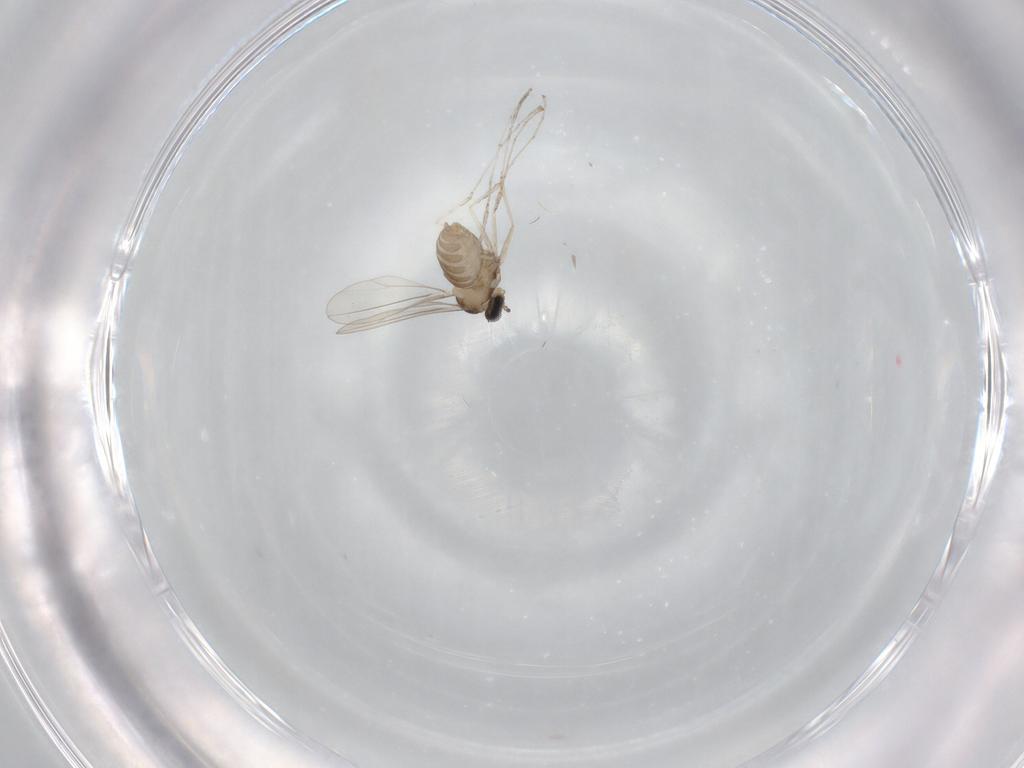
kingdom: Animalia
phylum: Arthropoda
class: Insecta
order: Diptera
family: Cecidomyiidae
